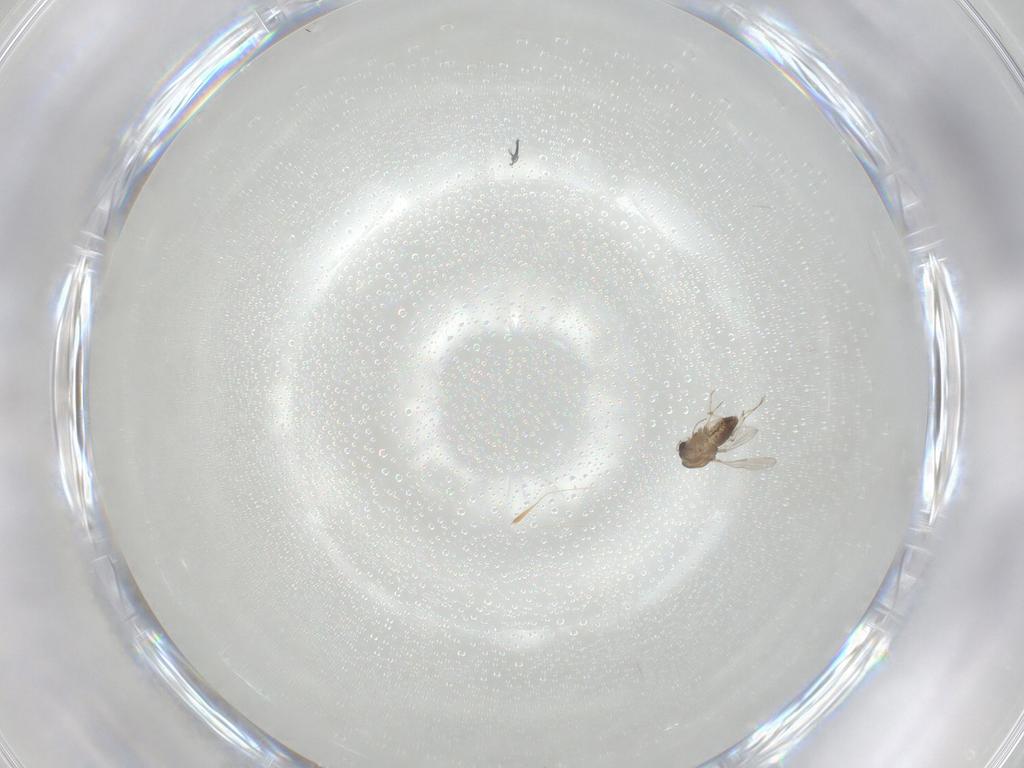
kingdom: Animalia
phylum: Arthropoda
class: Insecta
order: Diptera
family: Chironomidae
